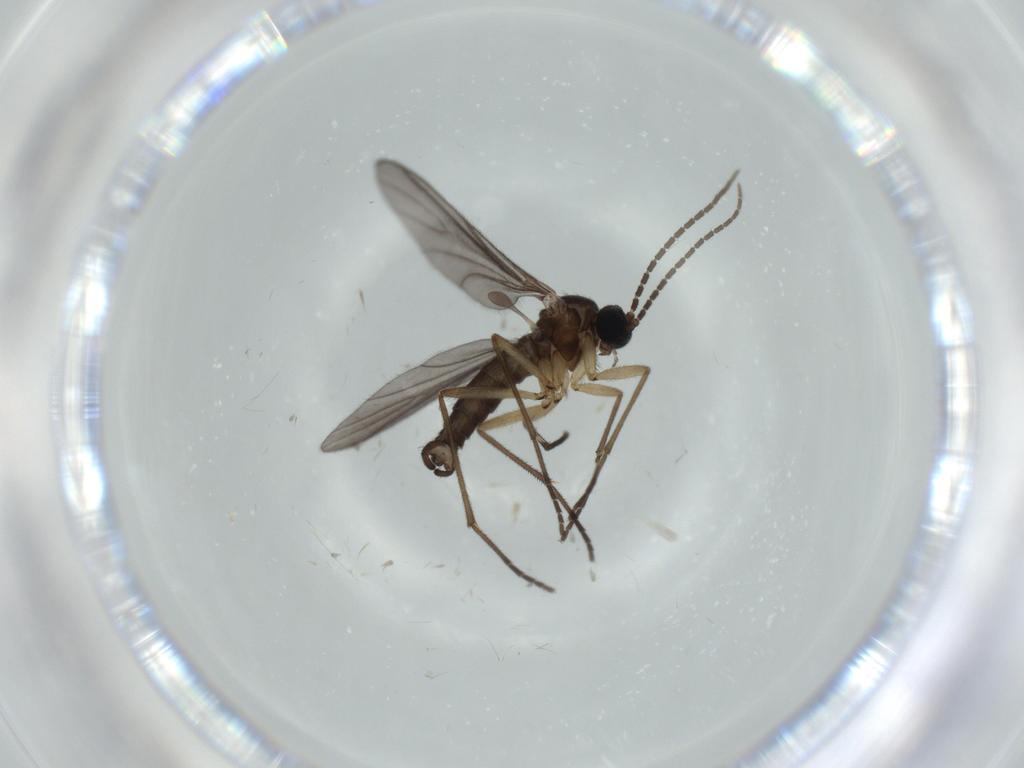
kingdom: Animalia
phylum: Arthropoda
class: Insecta
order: Diptera
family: Sciaridae
